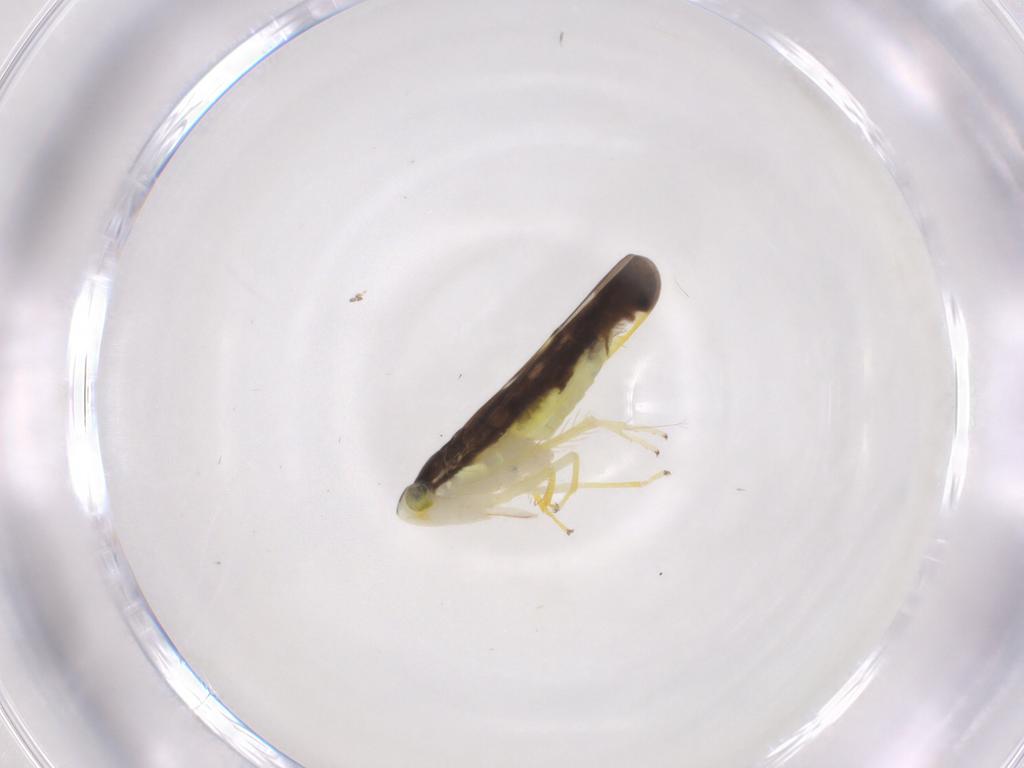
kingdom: Animalia
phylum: Arthropoda
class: Insecta
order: Hemiptera
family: Cicadellidae
